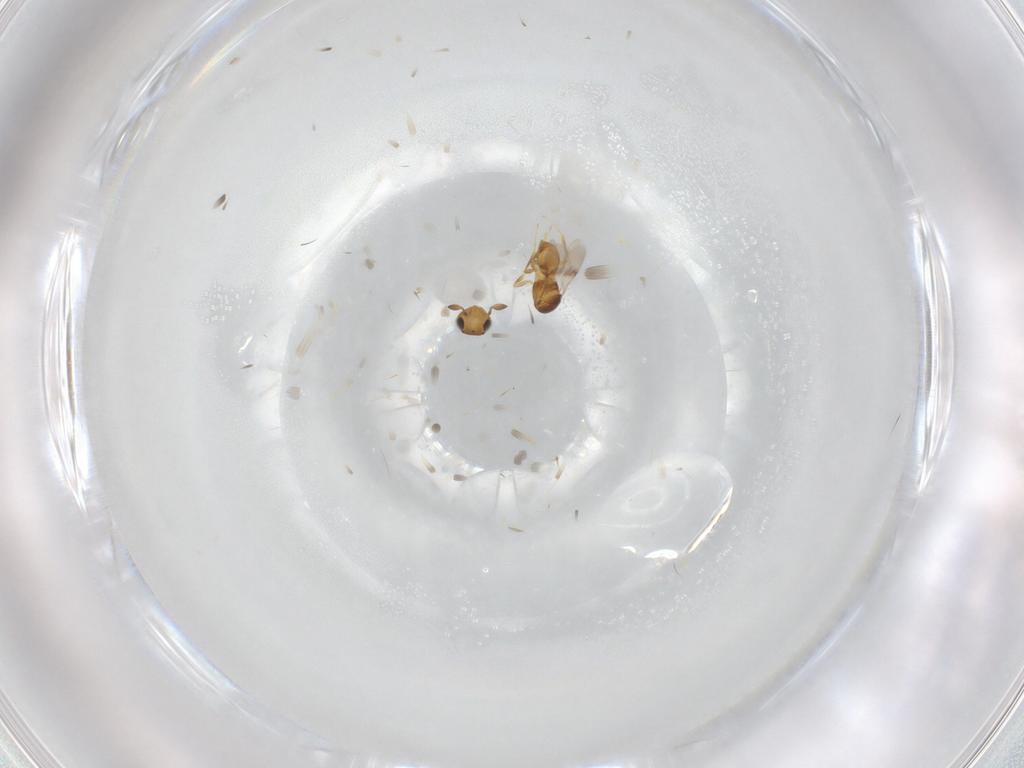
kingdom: Animalia
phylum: Arthropoda
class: Insecta
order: Hymenoptera
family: Scelionidae
